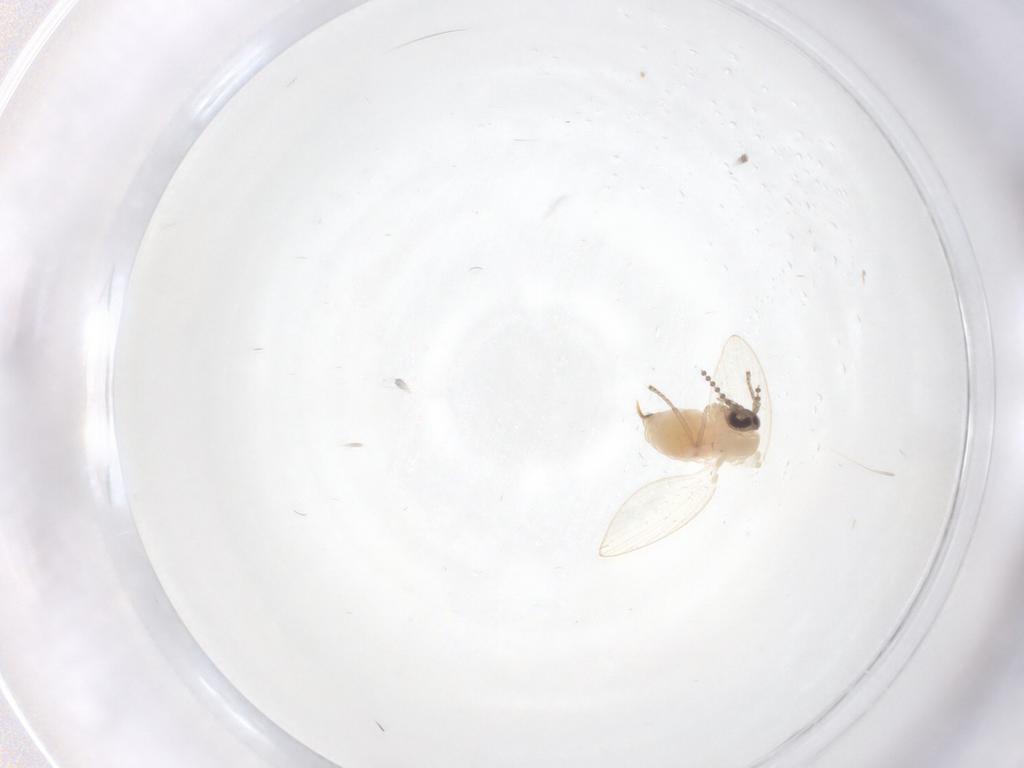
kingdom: Animalia
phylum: Arthropoda
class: Insecta
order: Diptera
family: Psychodidae
